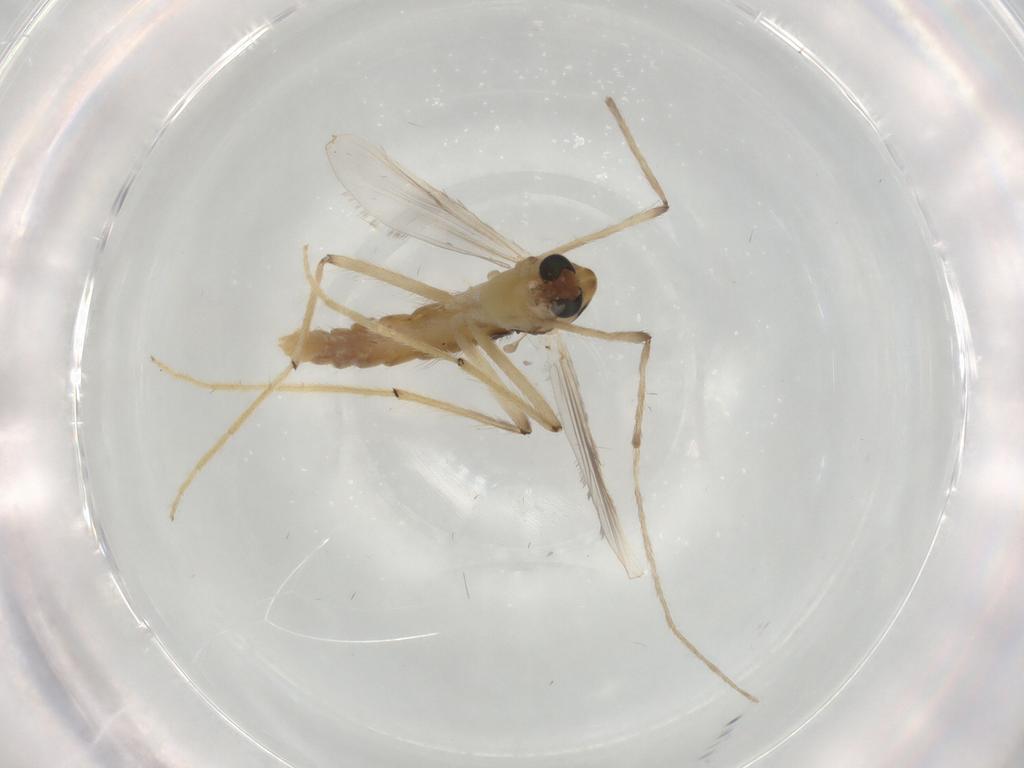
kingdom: Animalia
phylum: Arthropoda
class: Insecta
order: Diptera
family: Chironomidae
